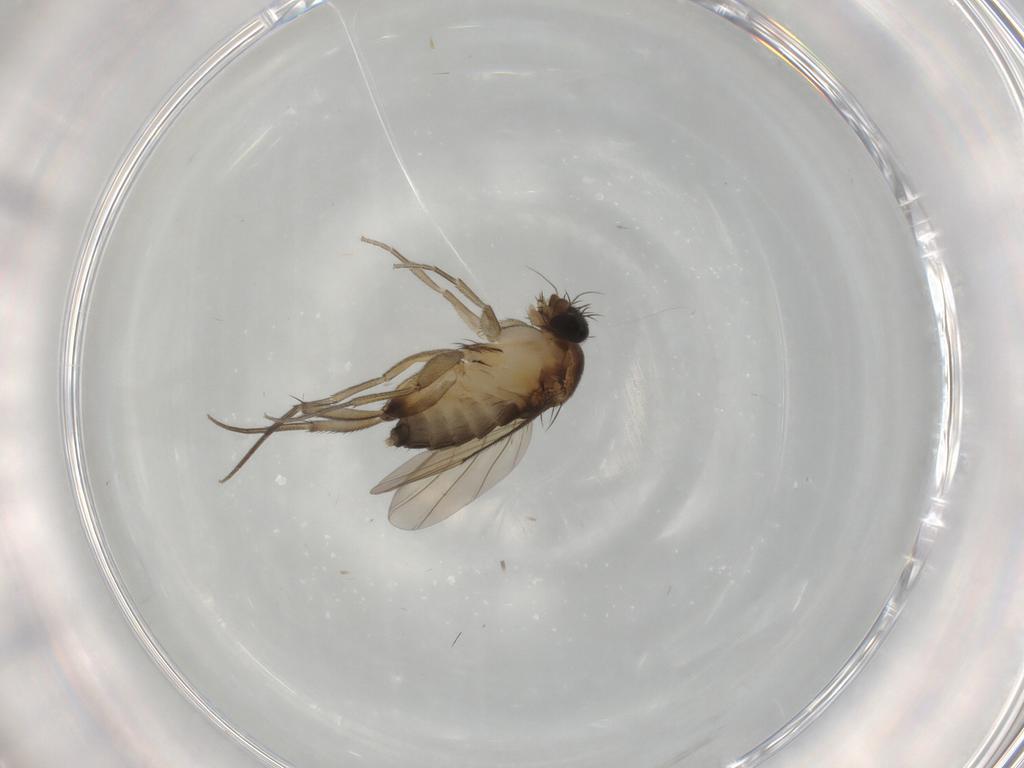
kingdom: Animalia
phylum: Arthropoda
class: Insecta
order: Diptera
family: Phoridae
